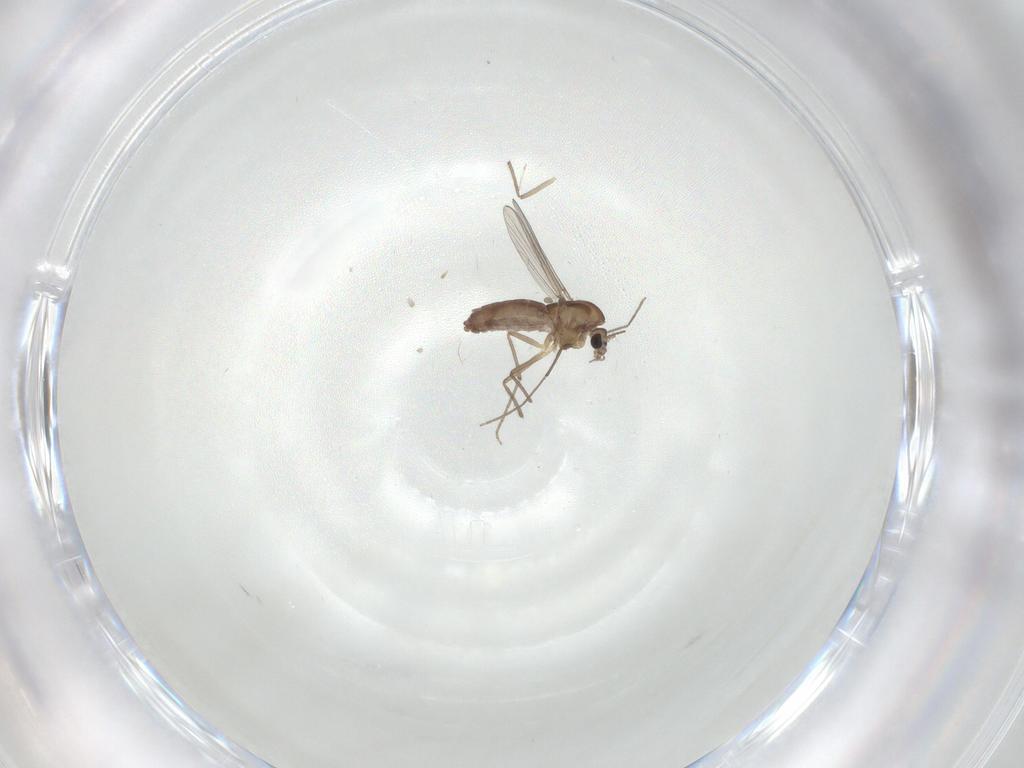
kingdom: Animalia
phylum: Arthropoda
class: Insecta
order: Diptera
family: Chironomidae
